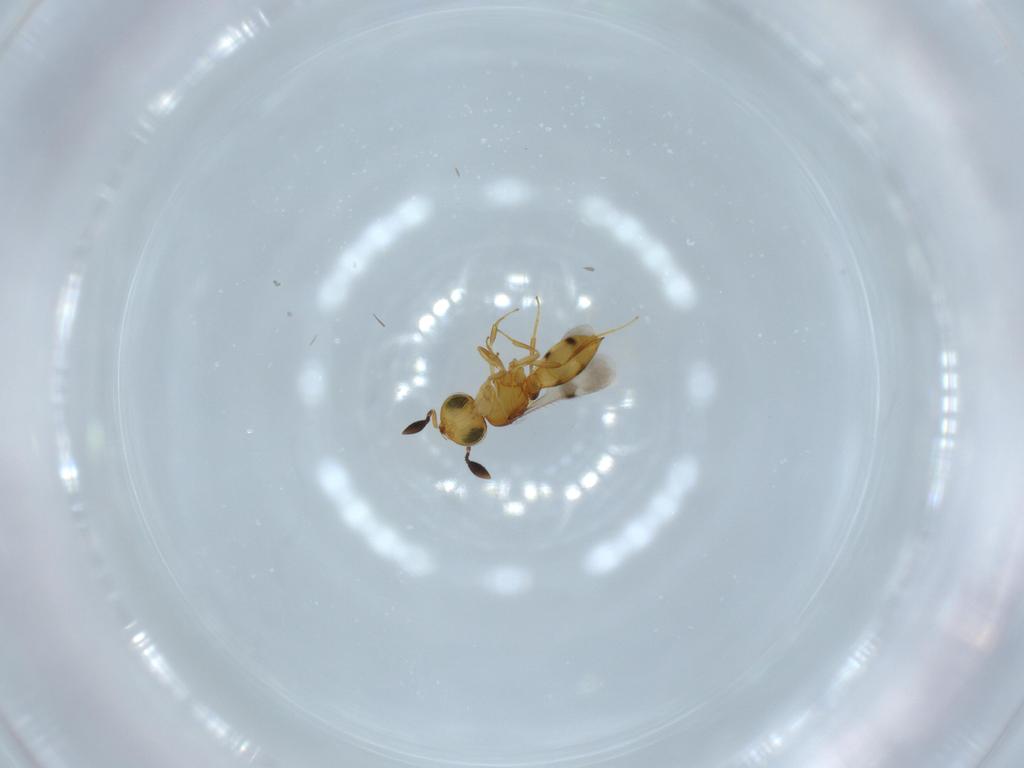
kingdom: Animalia
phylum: Arthropoda
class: Insecta
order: Hymenoptera
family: Scelionidae
